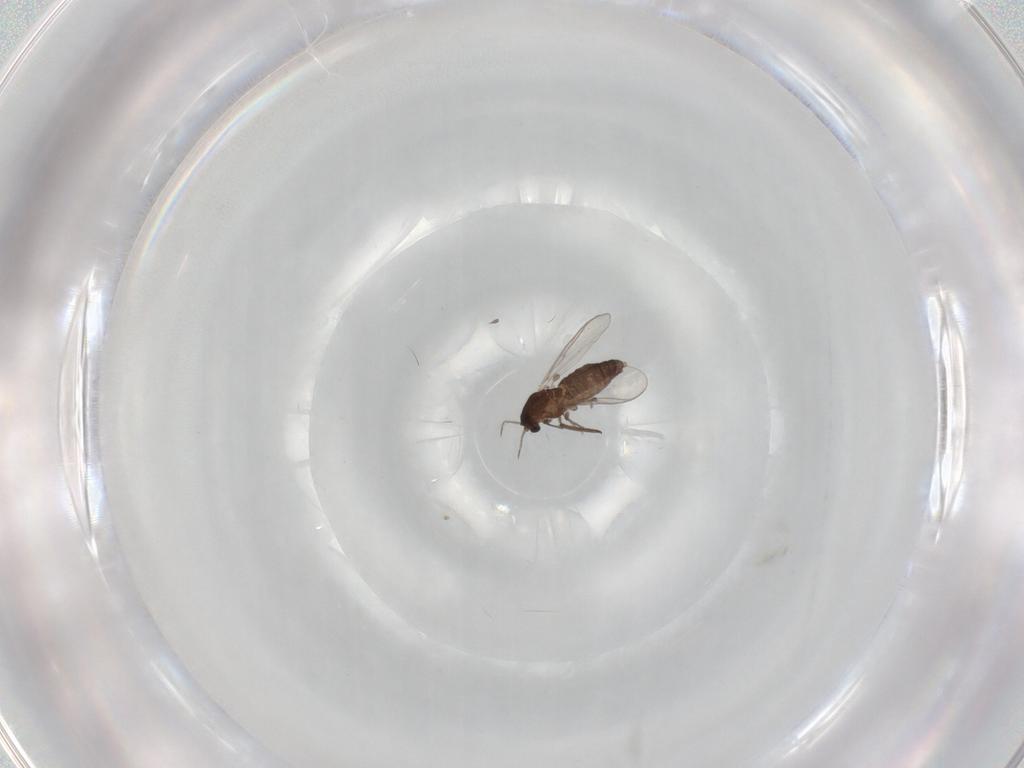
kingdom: Animalia
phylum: Arthropoda
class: Insecta
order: Diptera
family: Chironomidae
